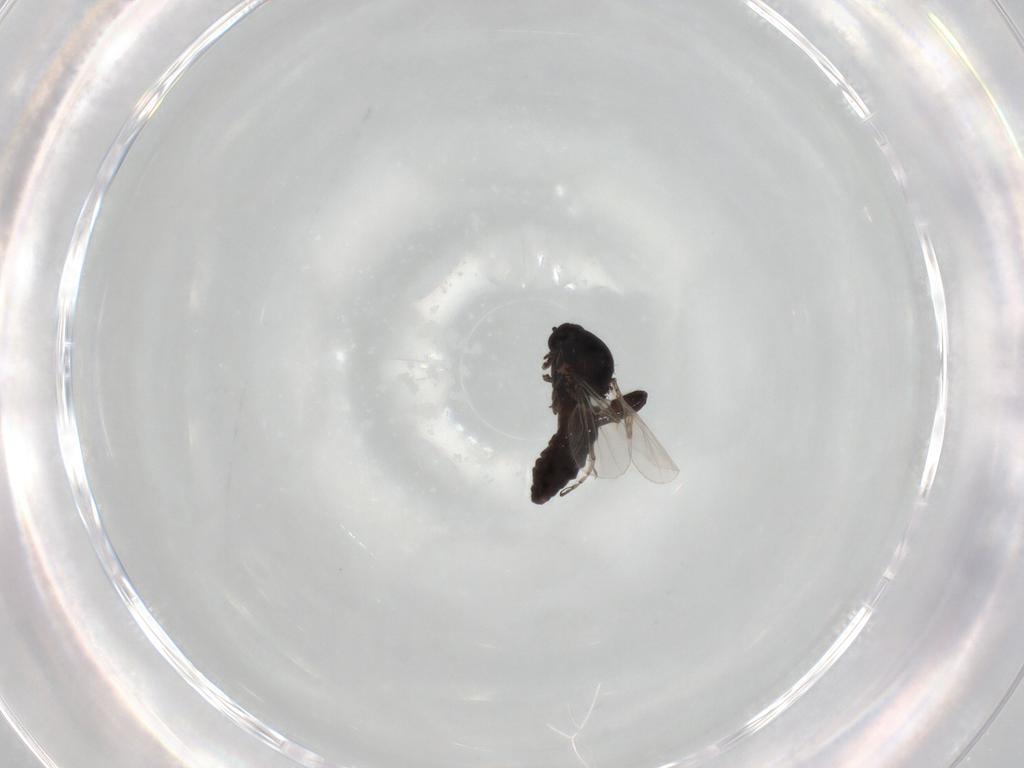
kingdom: Animalia
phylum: Arthropoda
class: Insecta
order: Diptera
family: Ceratopogonidae
